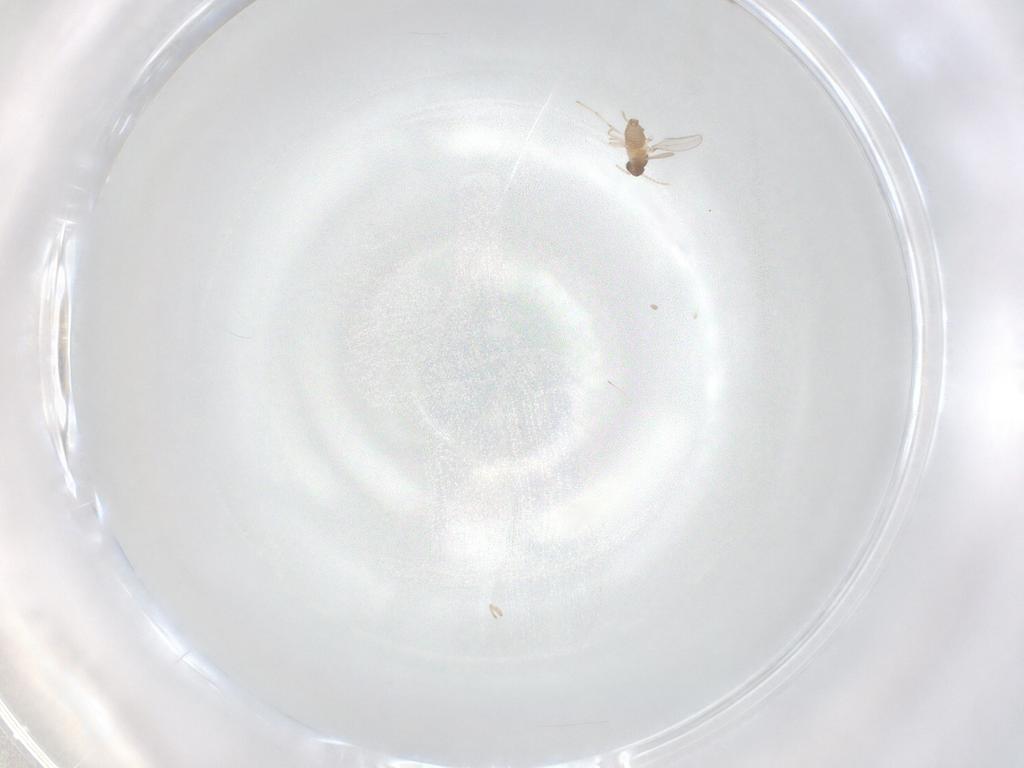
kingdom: Animalia
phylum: Arthropoda
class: Insecta
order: Diptera
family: Cecidomyiidae
